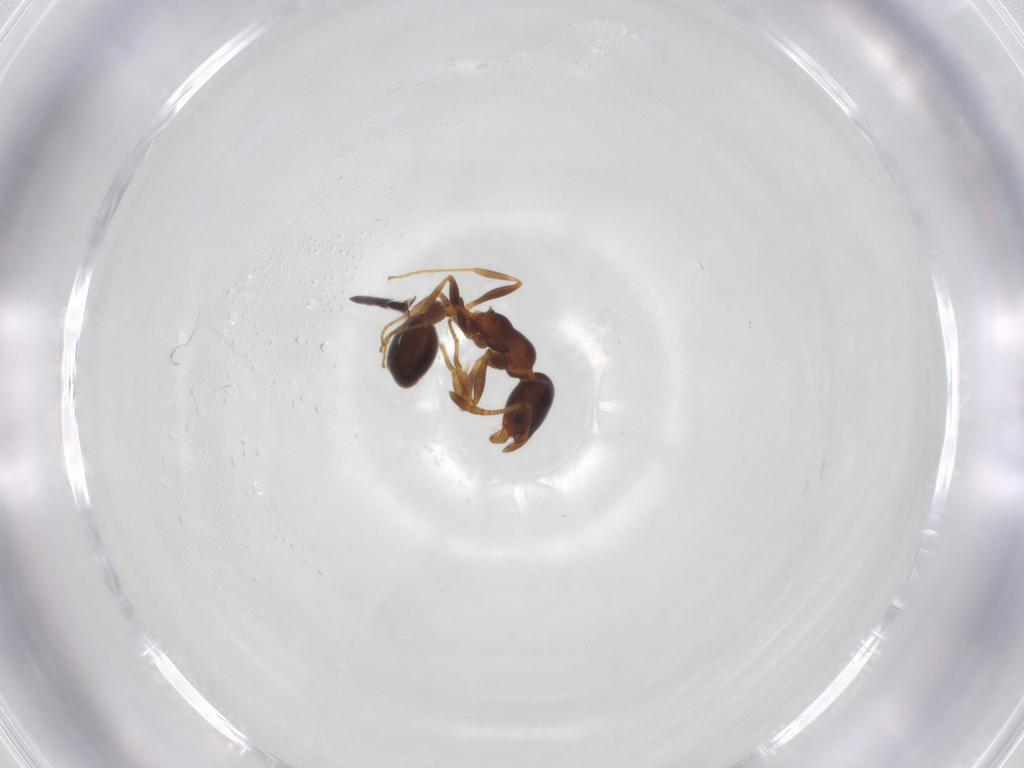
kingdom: Animalia
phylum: Arthropoda
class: Insecta
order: Hymenoptera
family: Formicidae
